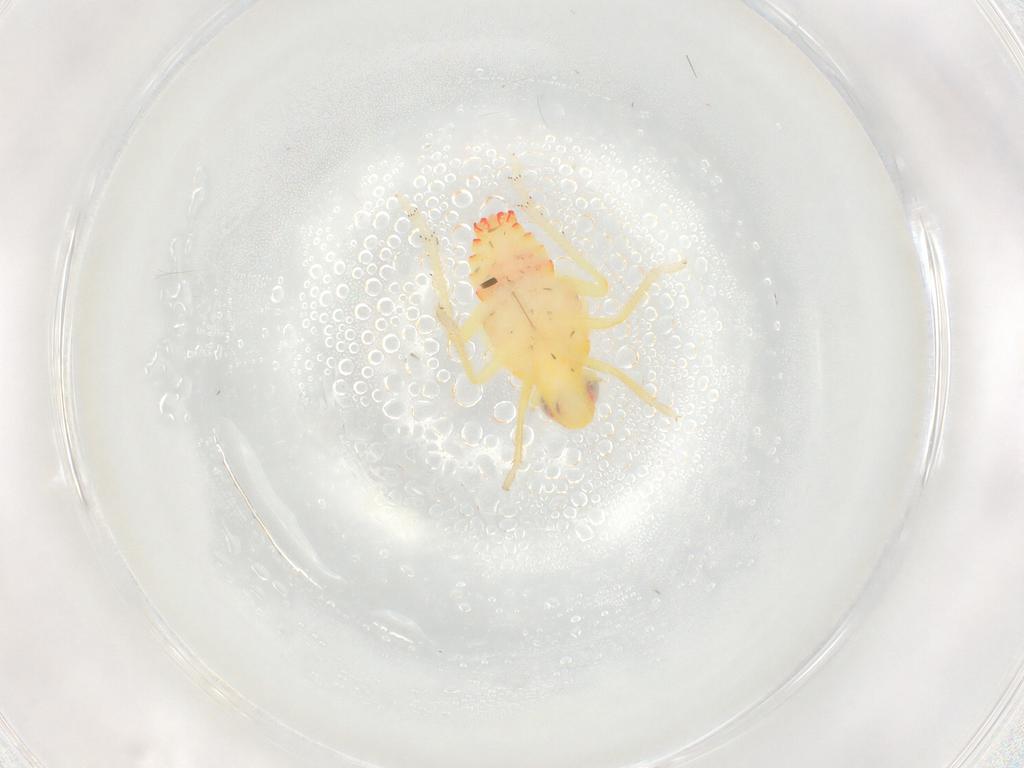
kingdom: Animalia
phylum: Arthropoda
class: Insecta
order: Hemiptera
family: Tropiduchidae
